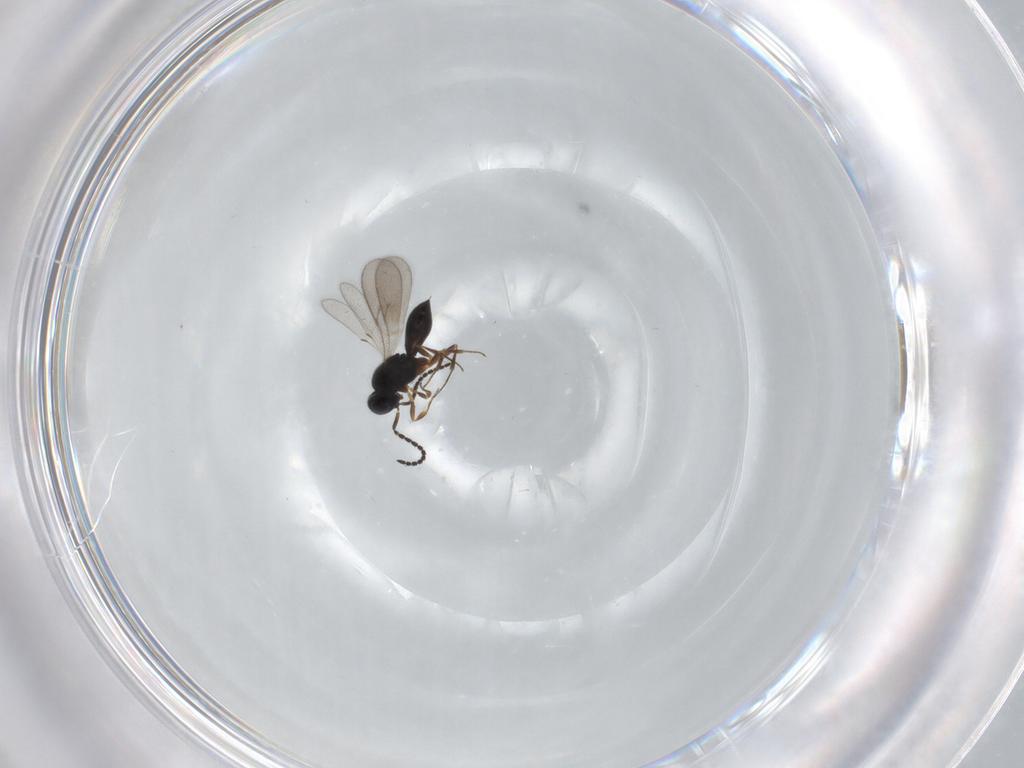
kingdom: Animalia
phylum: Arthropoda
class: Insecta
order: Hymenoptera
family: Scelionidae
